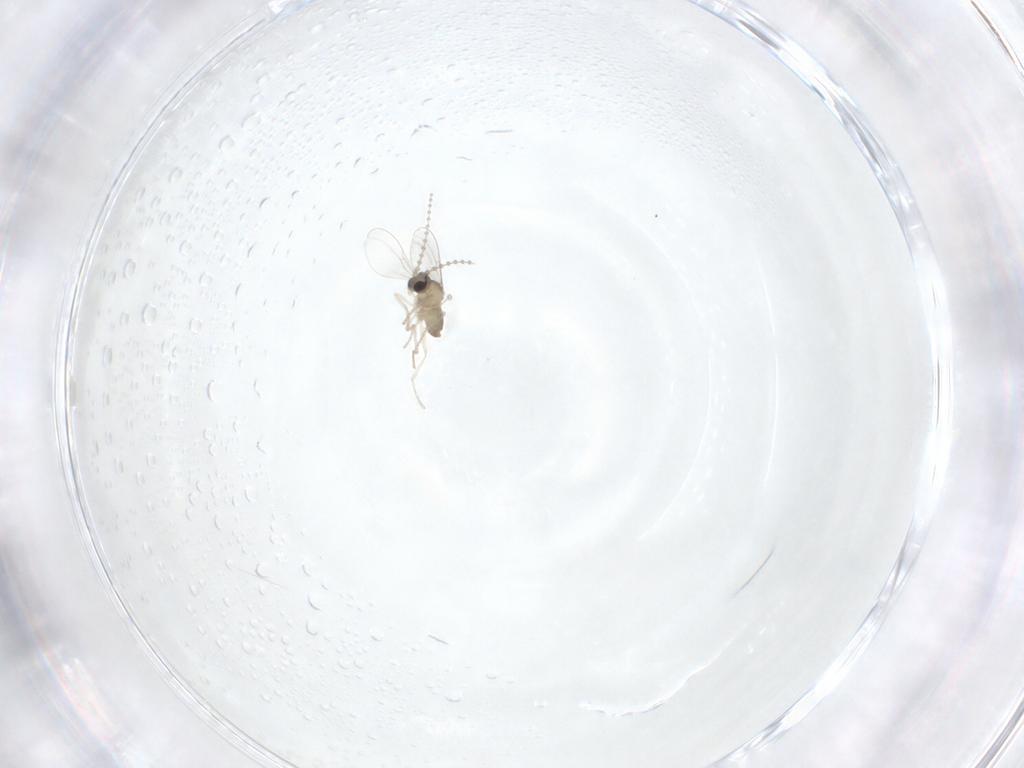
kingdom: Animalia
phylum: Arthropoda
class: Insecta
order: Diptera
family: Cecidomyiidae
